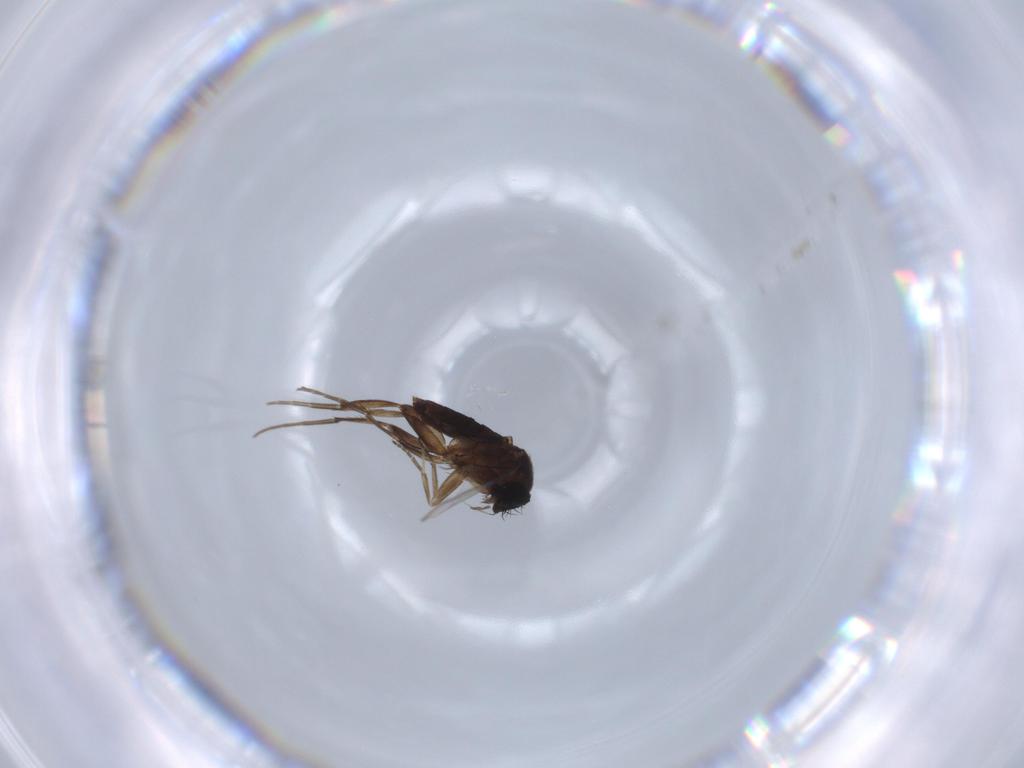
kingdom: Animalia
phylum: Arthropoda
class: Insecta
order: Diptera
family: Phoridae
